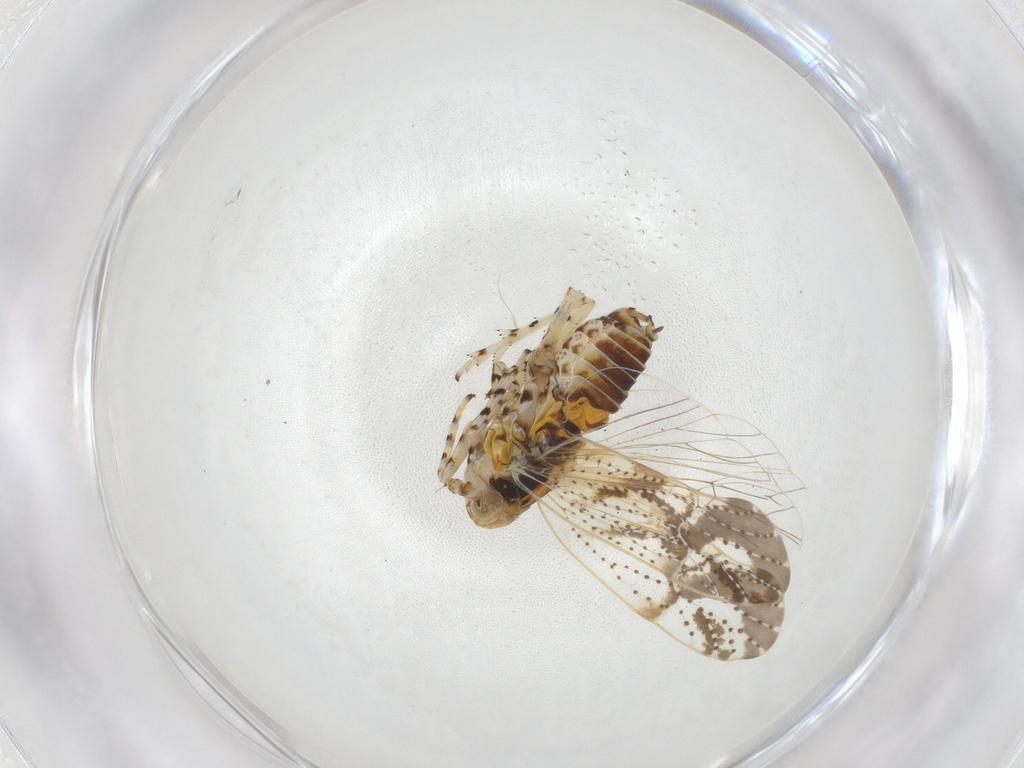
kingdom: Animalia
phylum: Arthropoda
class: Insecta
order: Hemiptera
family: Delphacidae
